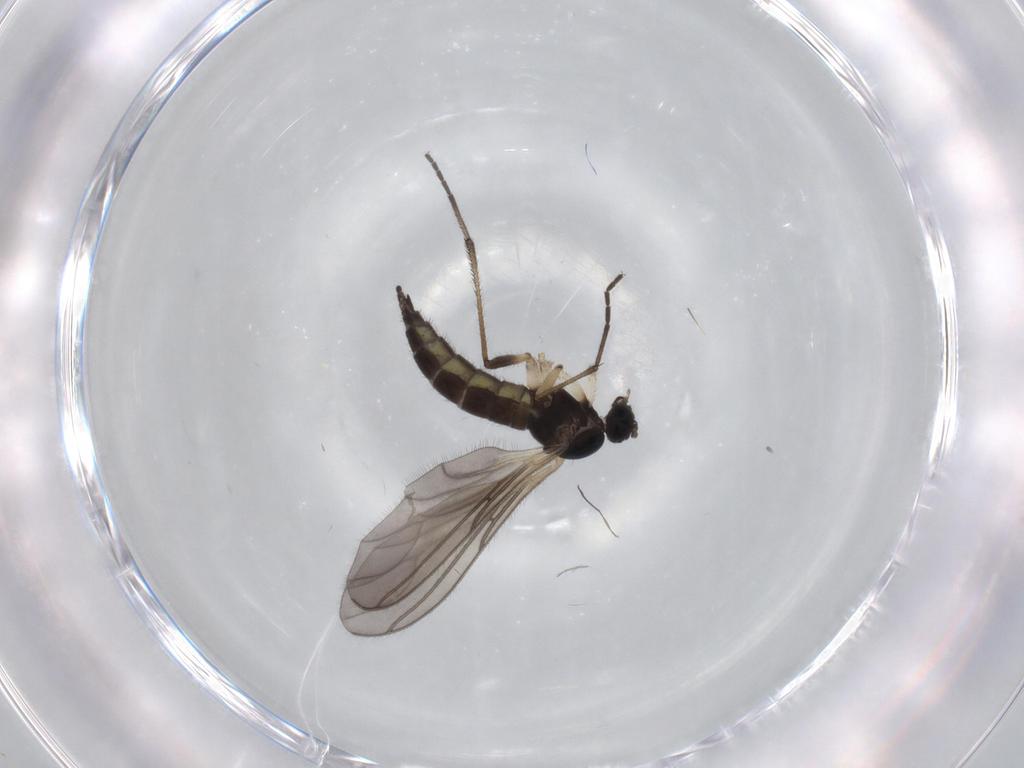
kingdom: Animalia
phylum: Arthropoda
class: Insecta
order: Diptera
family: Sciaridae
